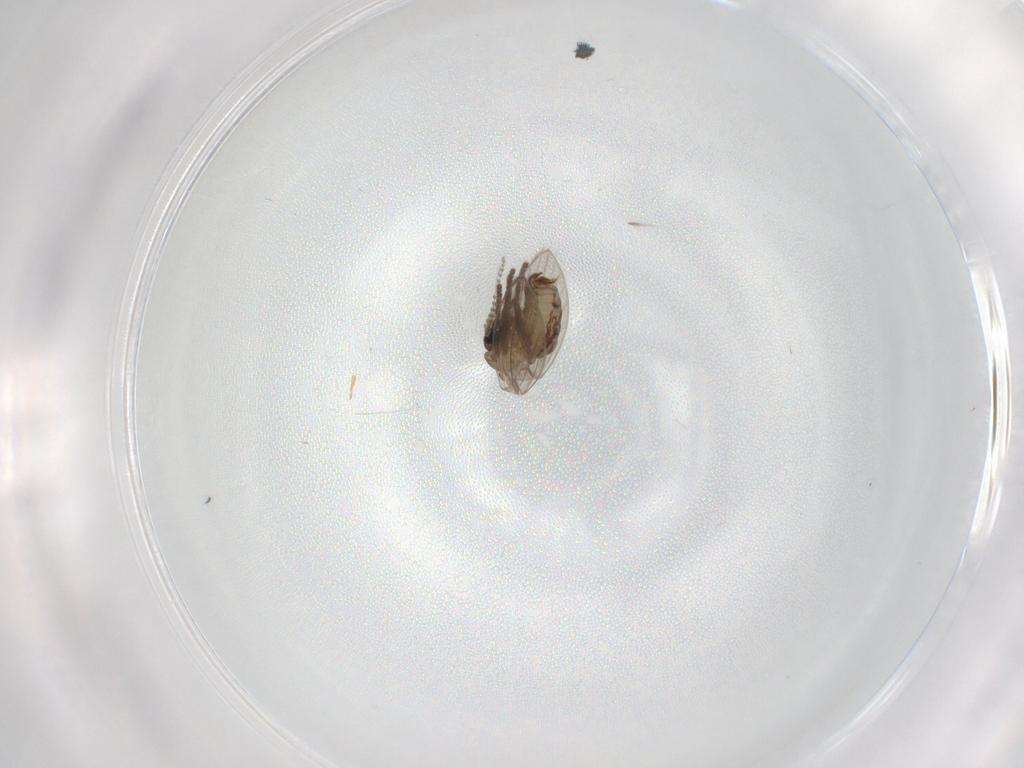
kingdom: Animalia
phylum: Arthropoda
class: Insecta
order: Diptera
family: Psychodidae
